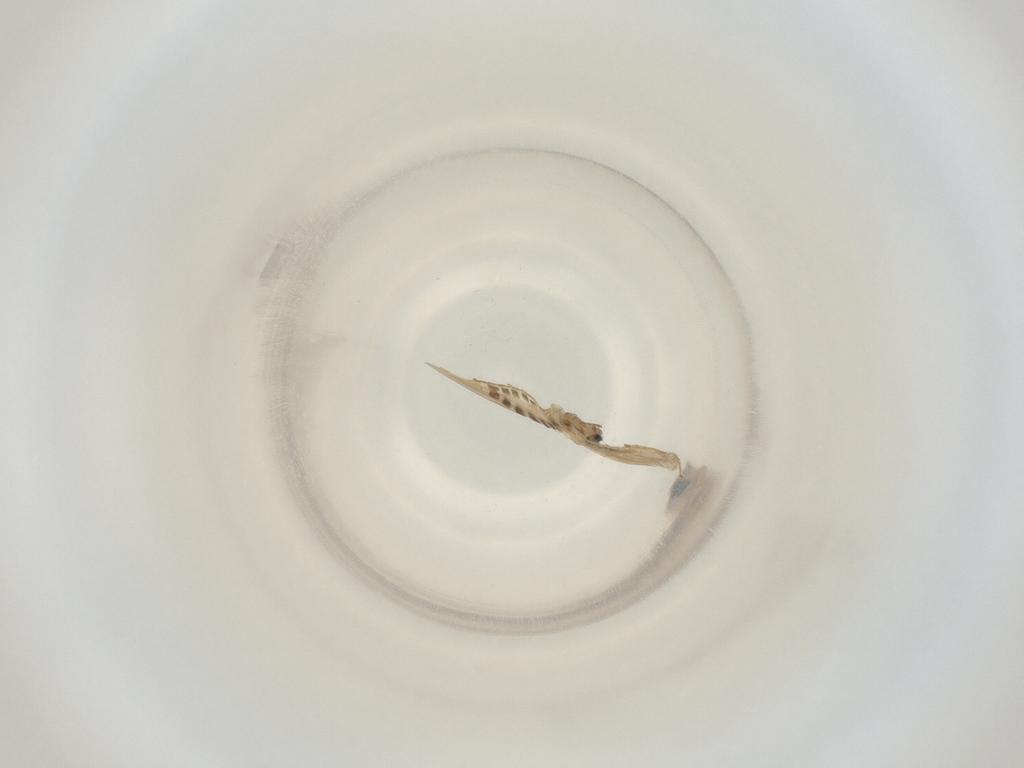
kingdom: Animalia
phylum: Arthropoda
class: Insecta
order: Diptera
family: Cecidomyiidae
